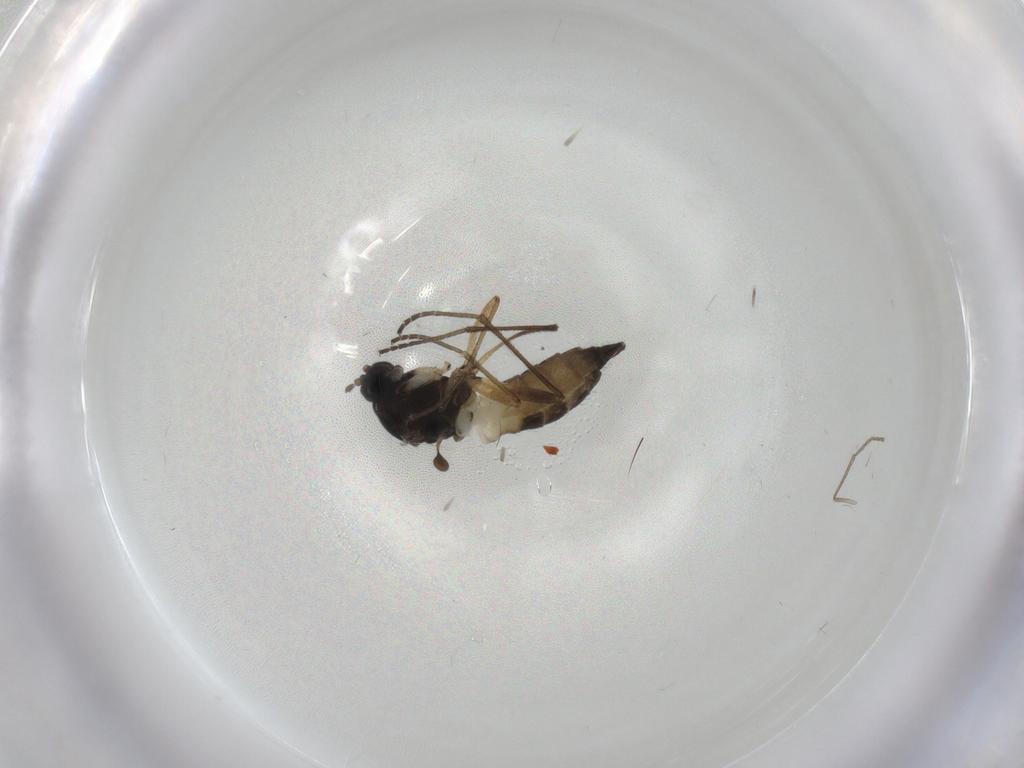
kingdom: Animalia
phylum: Arthropoda
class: Insecta
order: Diptera
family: Sciaridae
